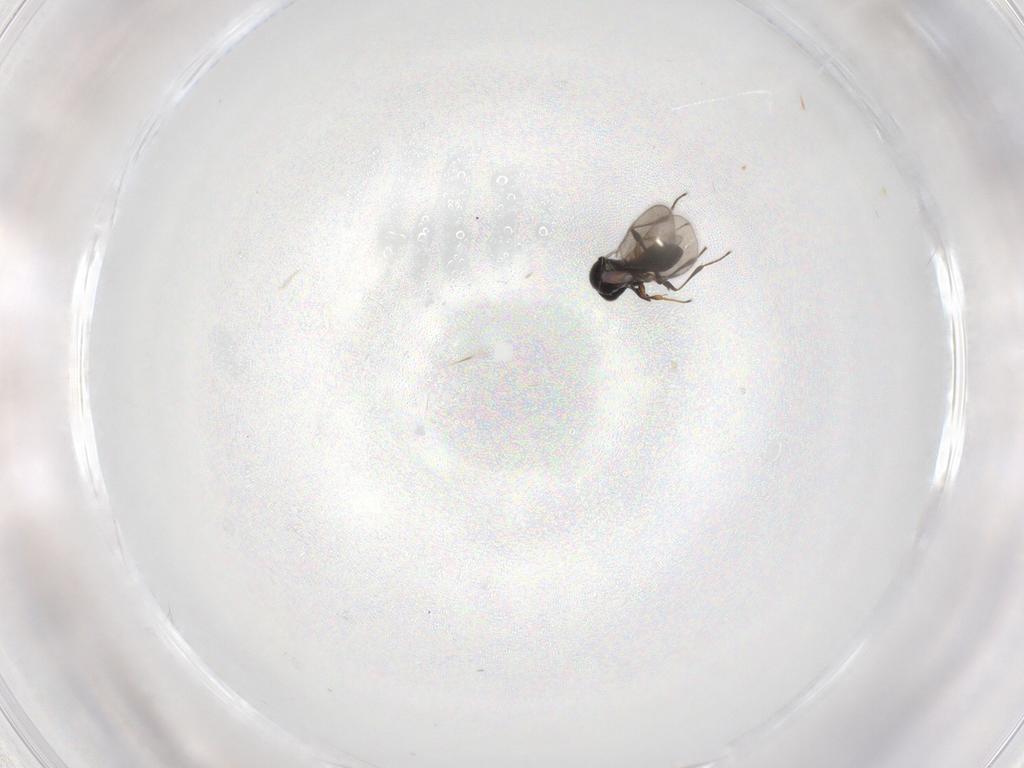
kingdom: Animalia
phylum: Arthropoda
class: Insecta
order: Hymenoptera
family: Platygastridae
